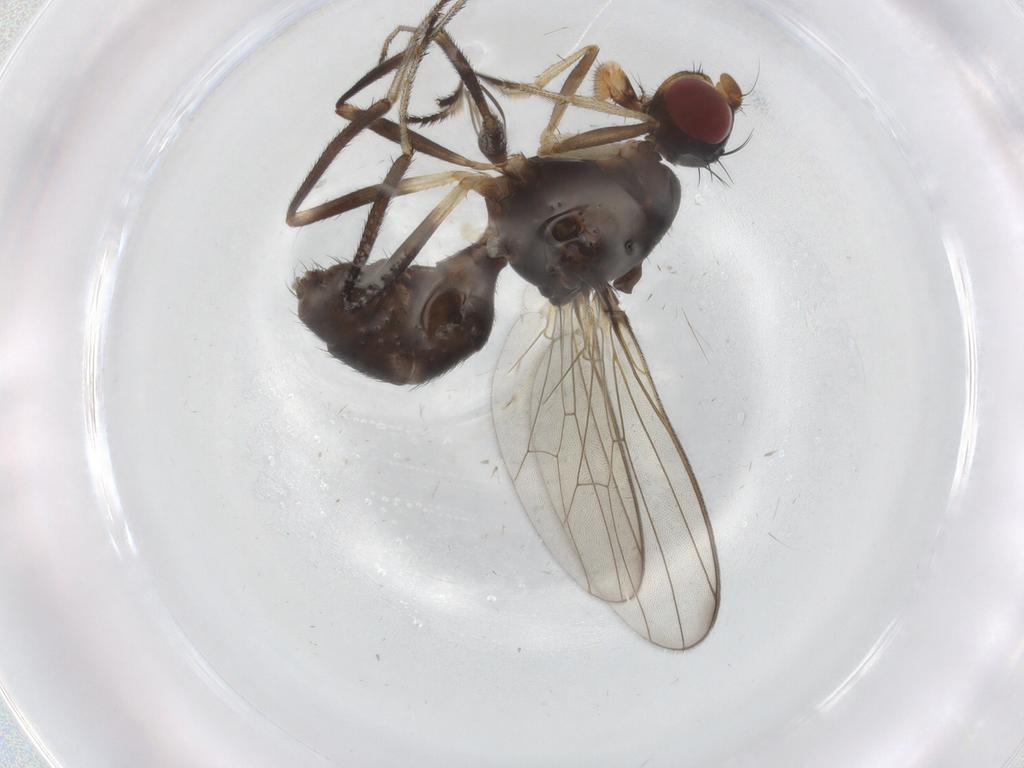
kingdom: Animalia
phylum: Arthropoda
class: Insecta
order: Diptera
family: Sepsidae
